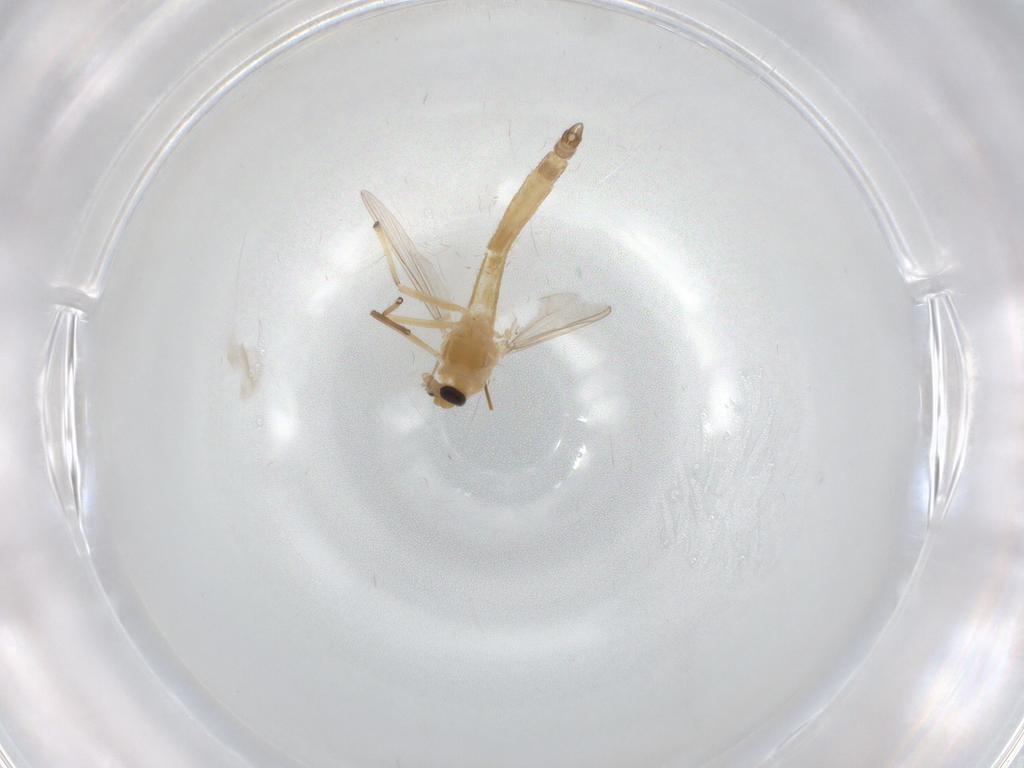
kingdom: Animalia
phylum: Arthropoda
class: Insecta
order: Diptera
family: Chironomidae
